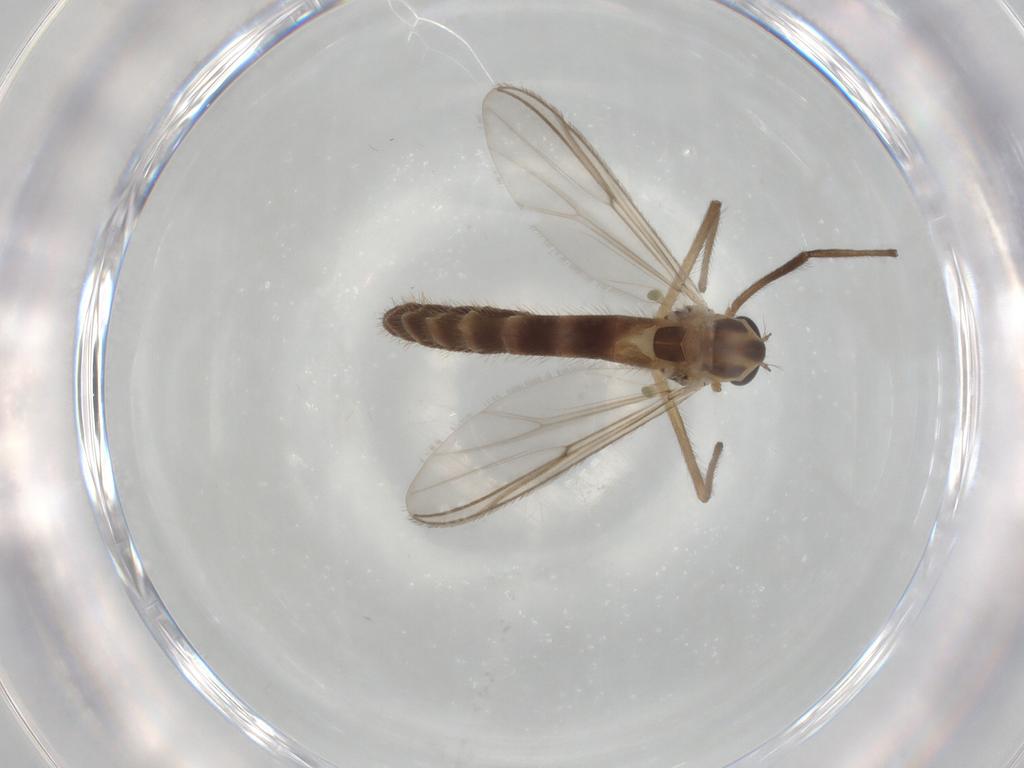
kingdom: Animalia
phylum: Arthropoda
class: Insecta
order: Diptera
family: Chironomidae
